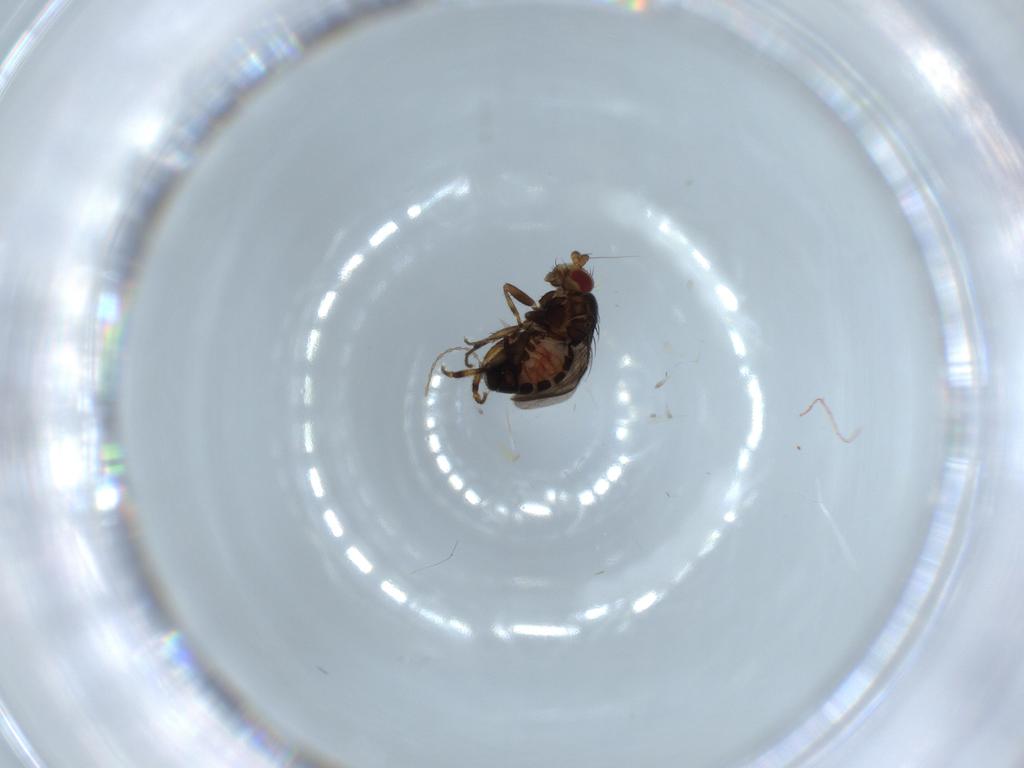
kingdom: Animalia
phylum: Arthropoda
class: Insecta
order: Diptera
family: Sphaeroceridae
